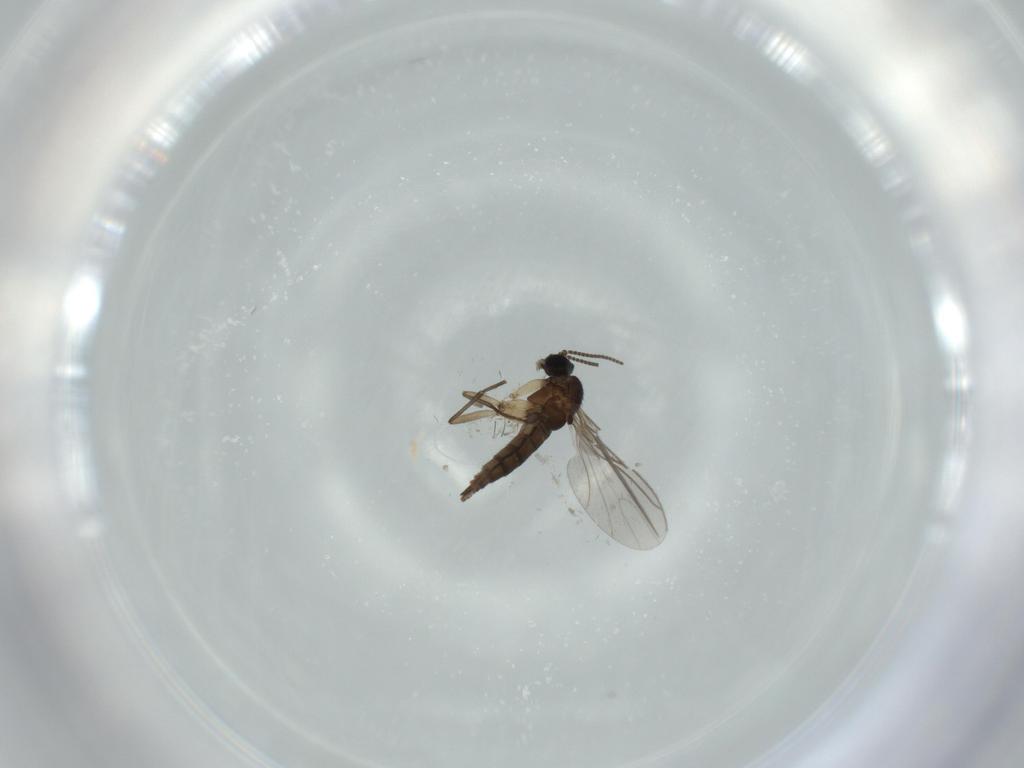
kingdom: Animalia
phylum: Arthropoda
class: Insecta
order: Diptera
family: Sciaridae
